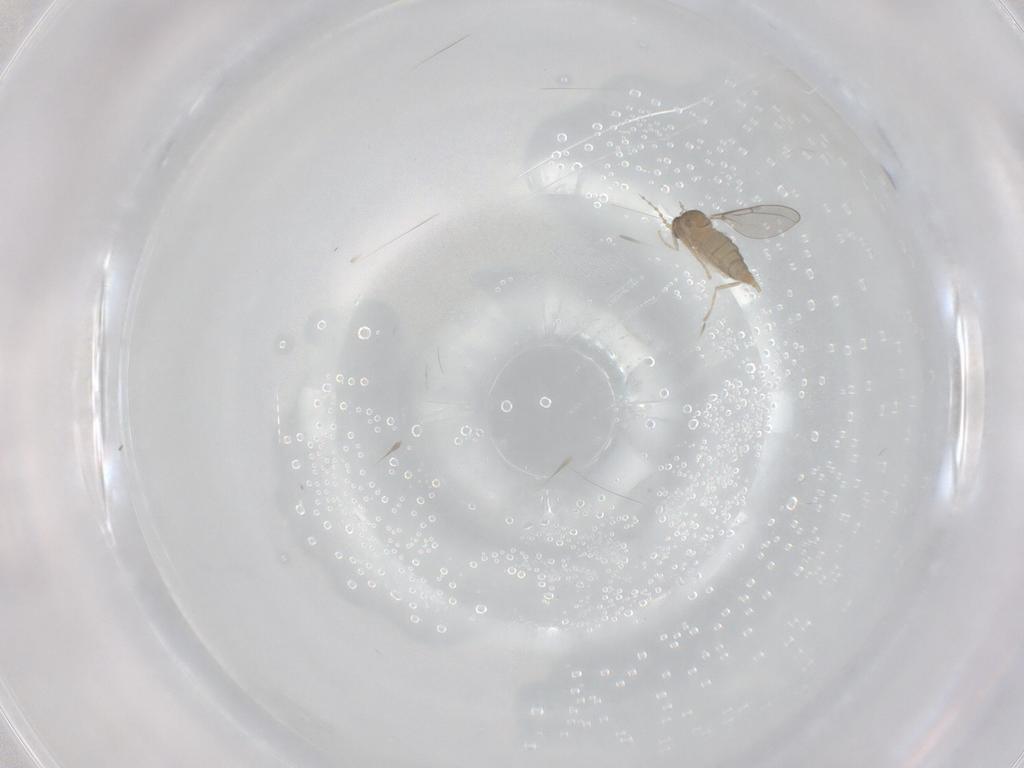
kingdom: Animalia
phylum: Arthropoda
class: Insecta
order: Diptera
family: Cecidomyiidae
